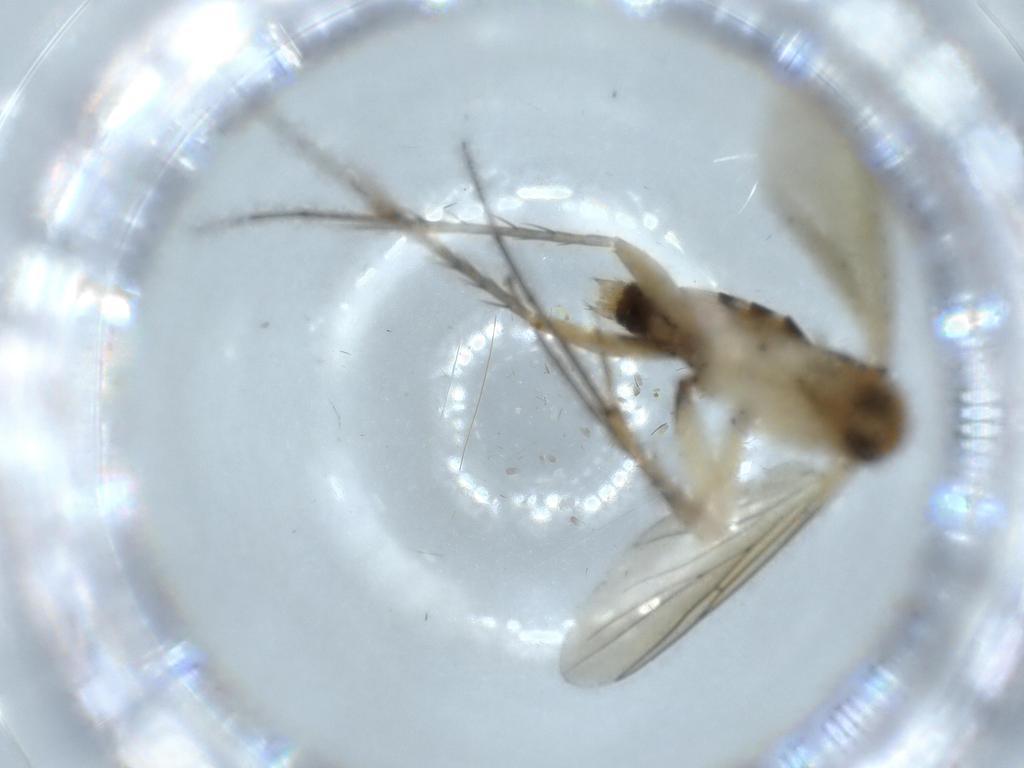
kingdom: Animalia
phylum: Arthropoda
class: Insecta
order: Diptera
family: Mycetophilidae
